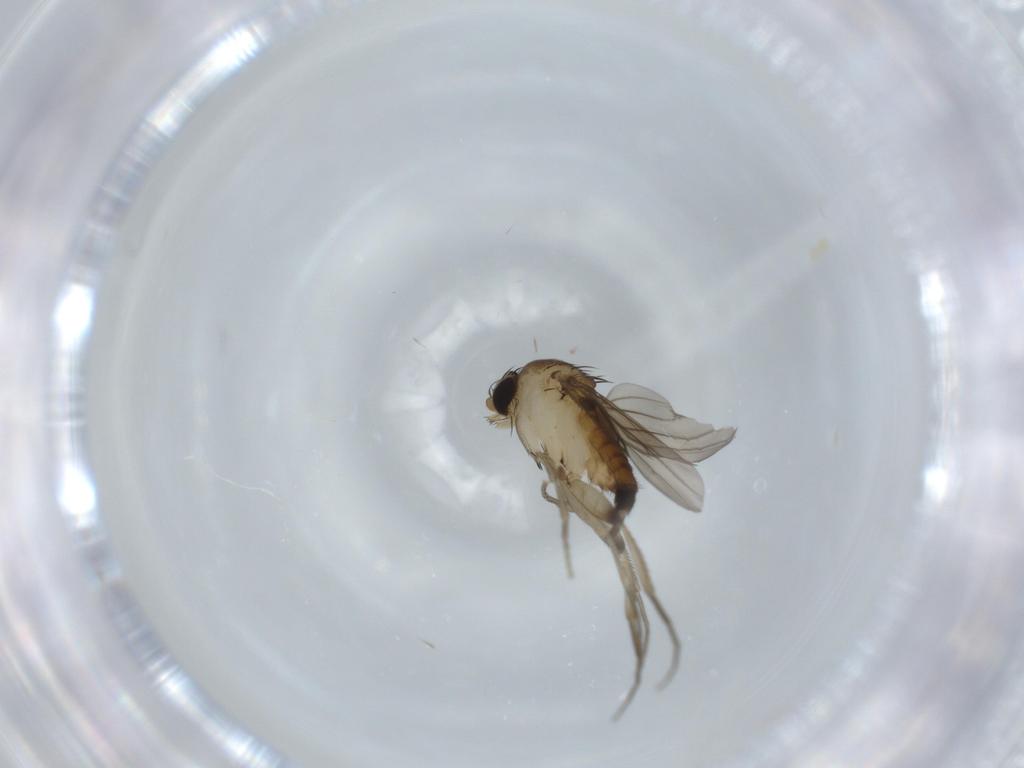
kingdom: Animalia
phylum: Arthropoda
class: Insecta
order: Diptera
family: Phoridae
